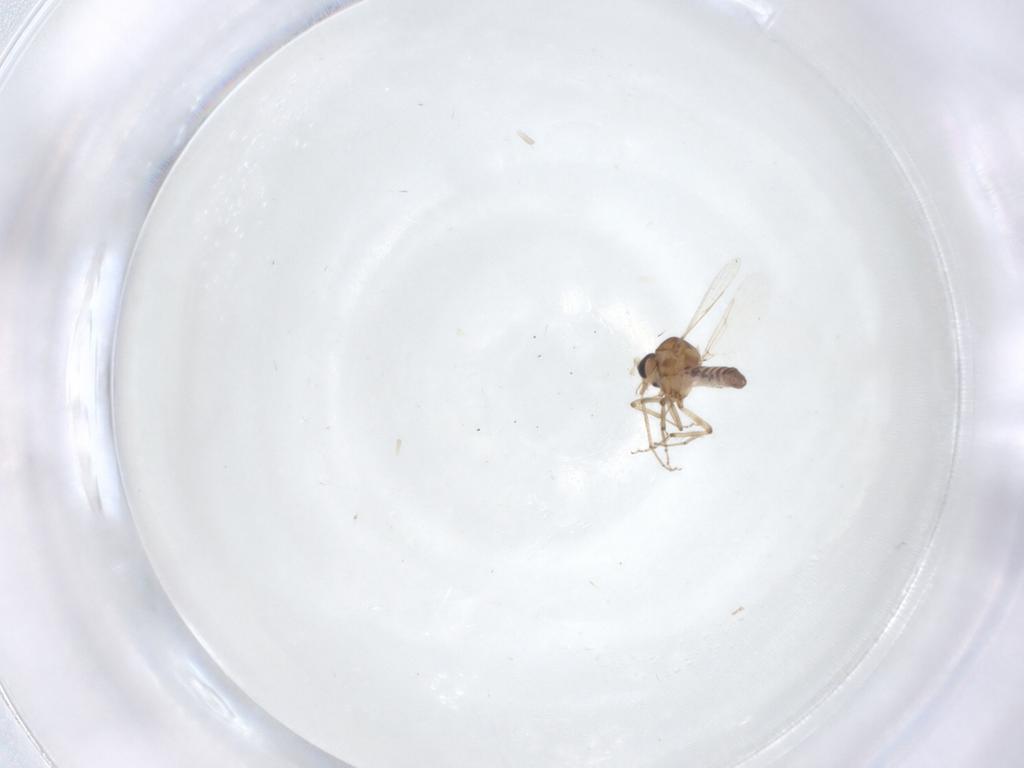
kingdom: Animalia
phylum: Arthropoda
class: Insecta
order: Diptera
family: Ceratopogonidae
